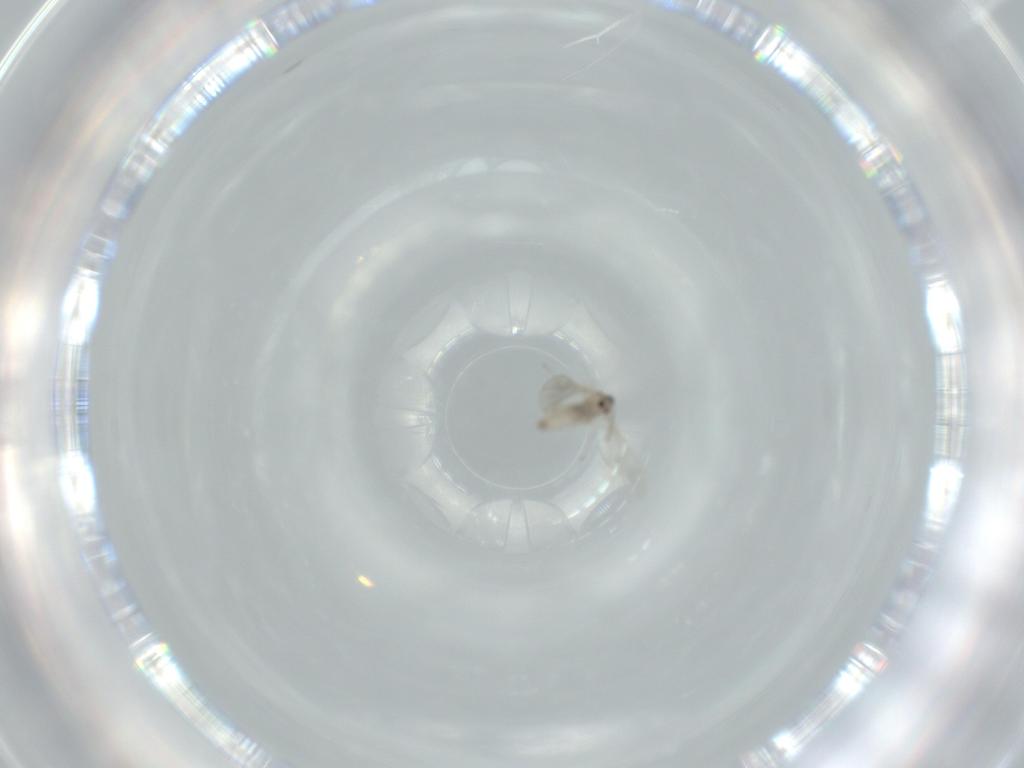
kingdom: Animalia
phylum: Arthropoda
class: Insecta
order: Diptera
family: Cecidomyiidae
